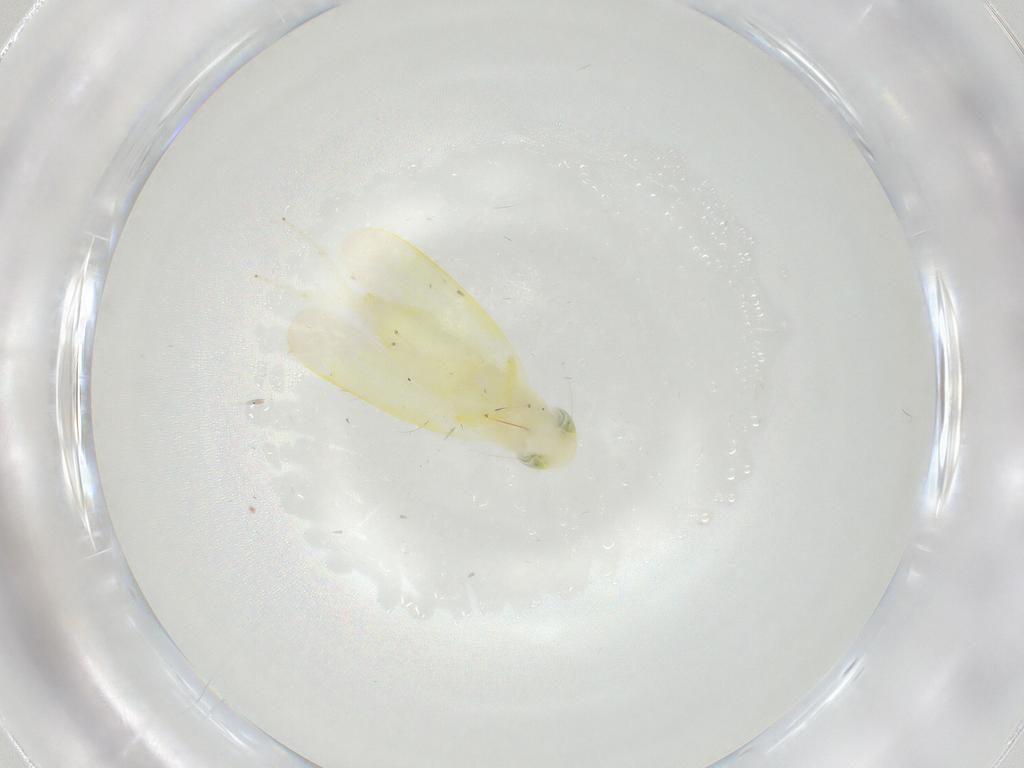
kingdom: Animalia
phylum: Arthropoda
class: Insecta
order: Hemiptera
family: Cicadellidae
